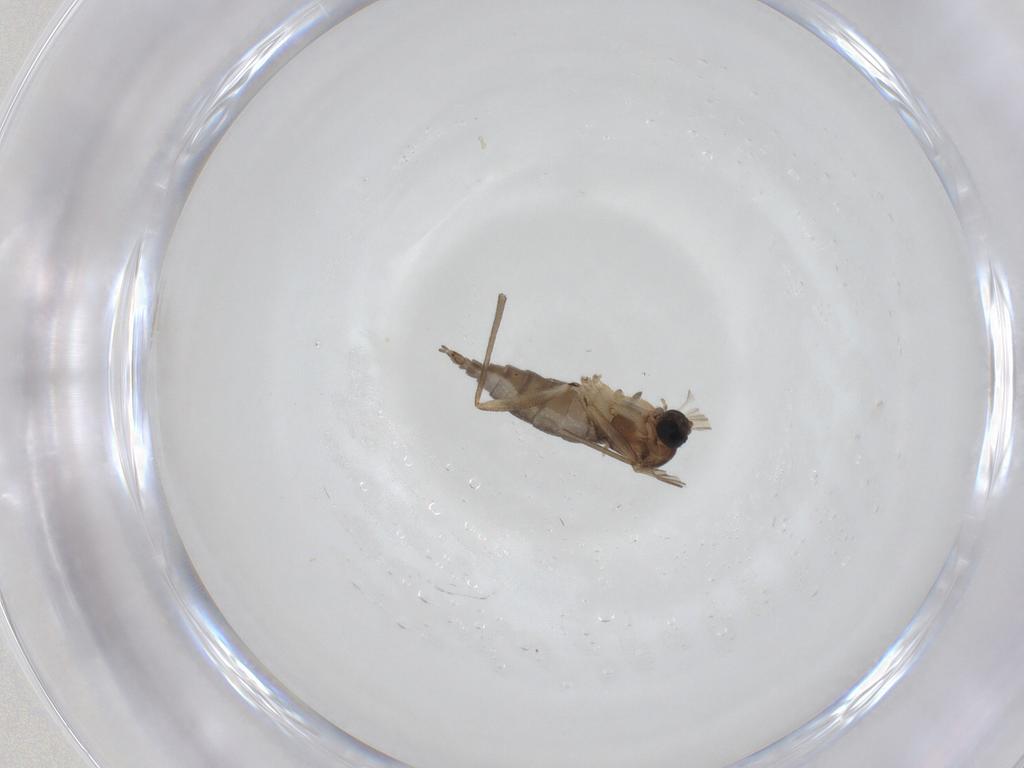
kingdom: Animalia
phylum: Arthropoda
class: Insecta
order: Diptera
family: Sciaridae
